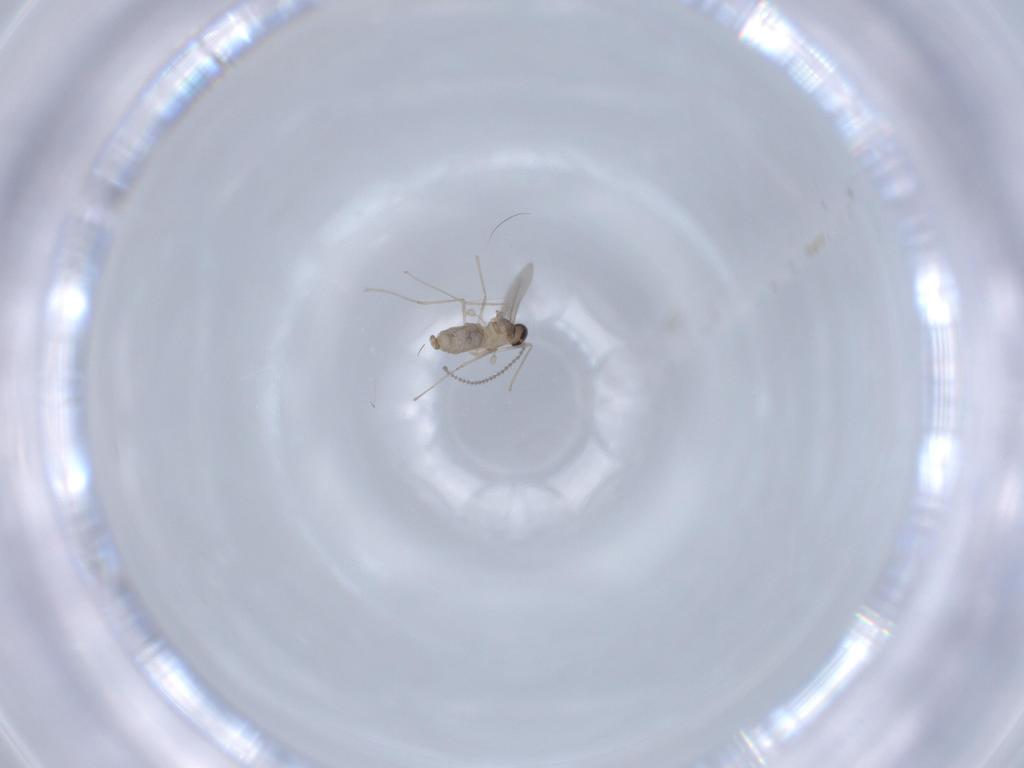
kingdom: Animalia
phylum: Arthropoda
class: Insecta
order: Diptera
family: Cecidomyiidae
